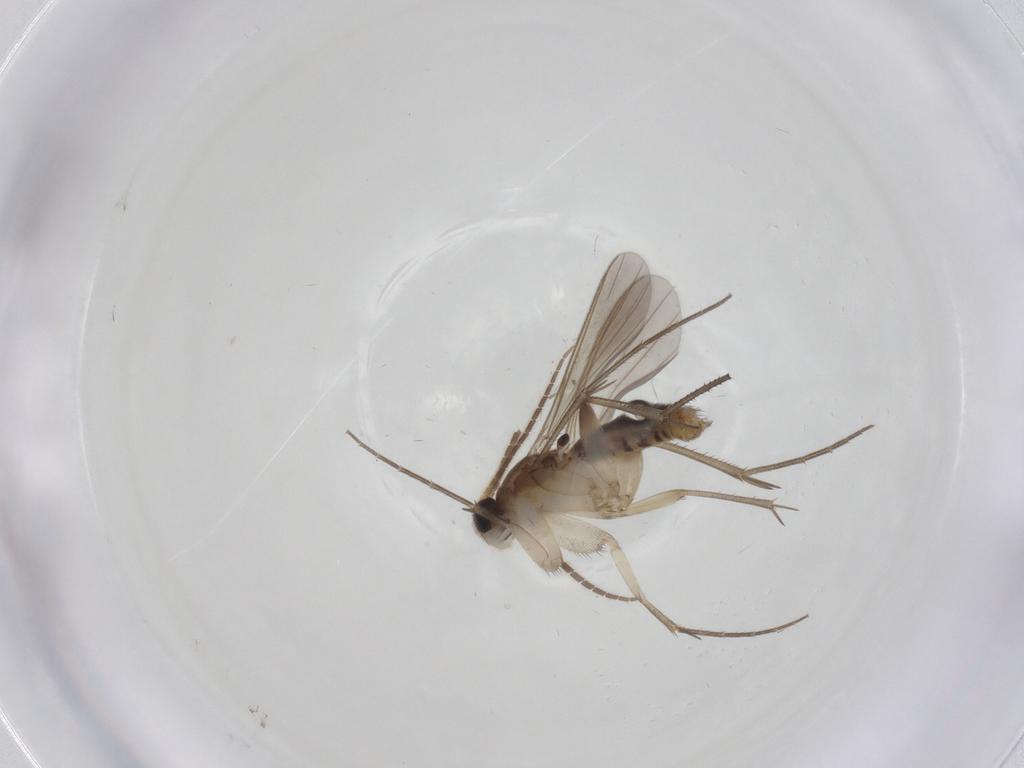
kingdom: Animalia
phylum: Arthropoda
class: Insecta
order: Diptera
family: Mycetophilidae
